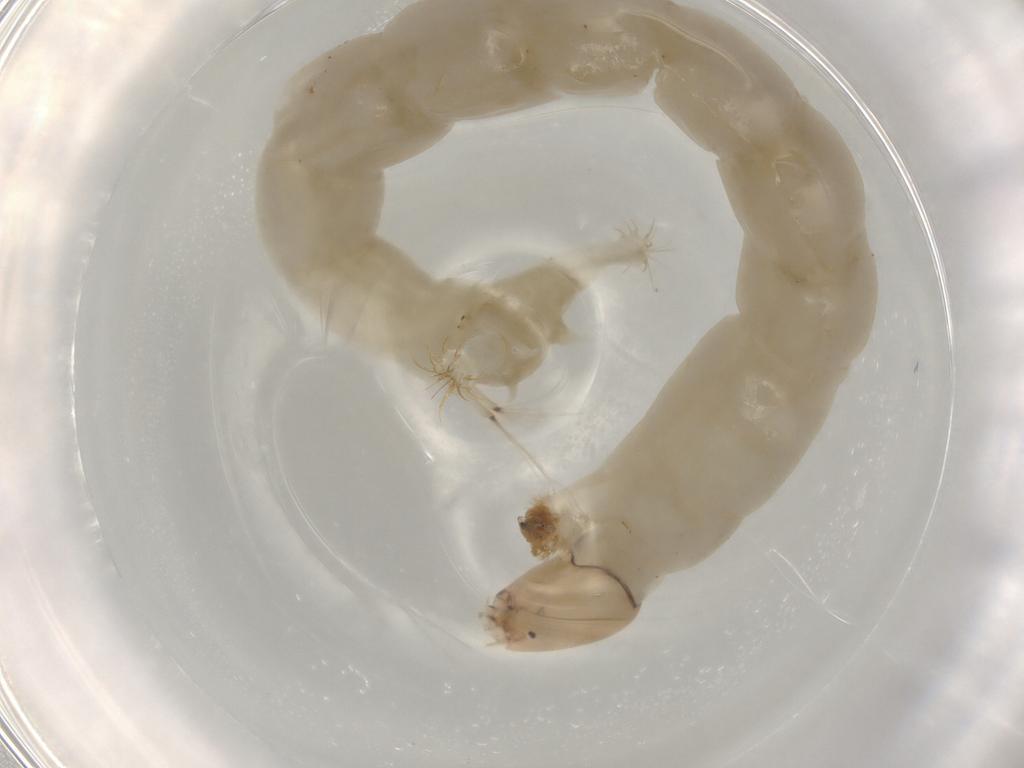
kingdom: Animalia
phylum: Arthropoda
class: Insecta
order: Diptera
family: Chironomidae
